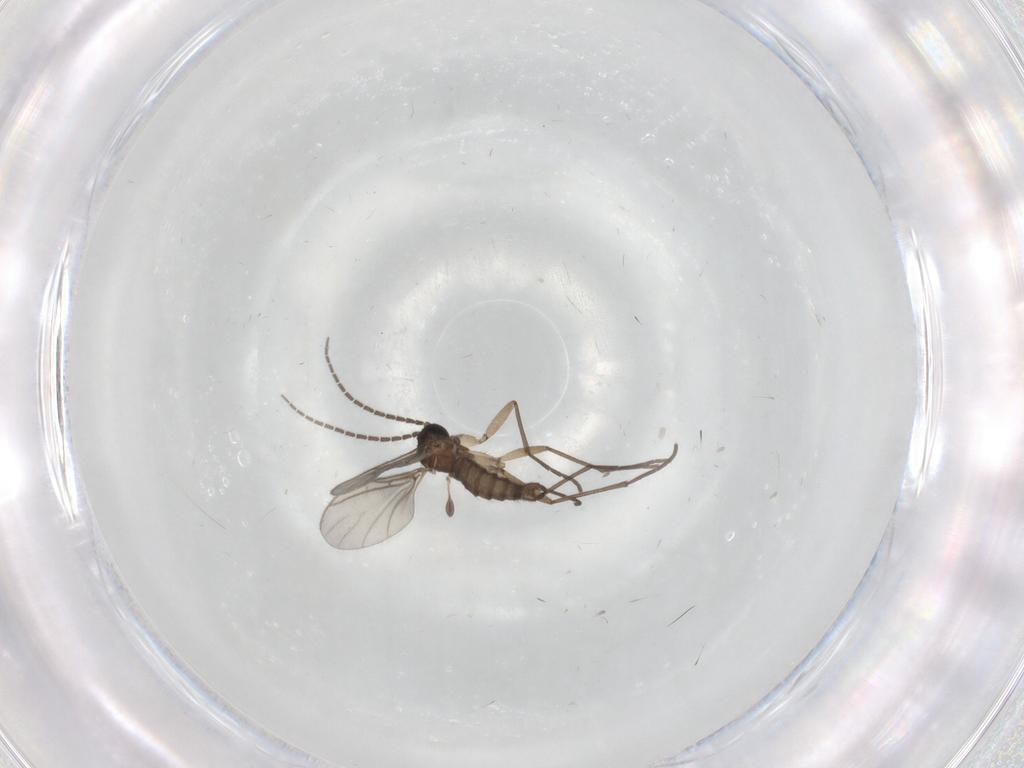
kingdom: Animalia
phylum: Arthropoda
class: Insecta
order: Diptera
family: Sciaridae
